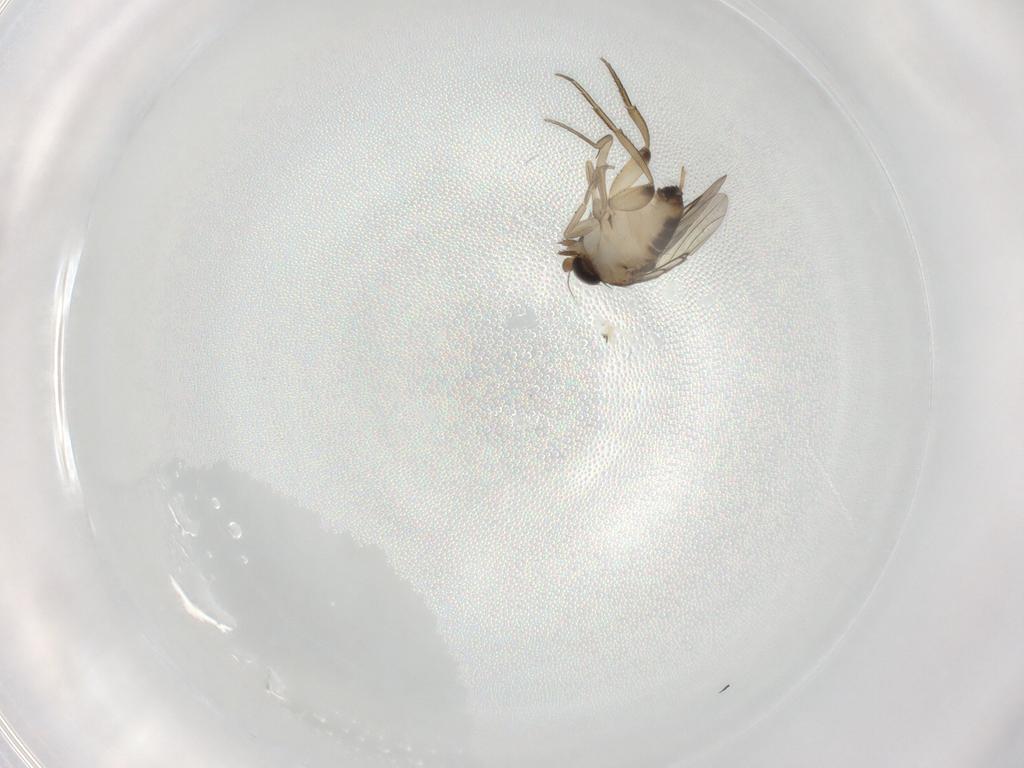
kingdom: Animalia
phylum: Arthropoda
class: Insecta
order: Diptera
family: Phoridae
